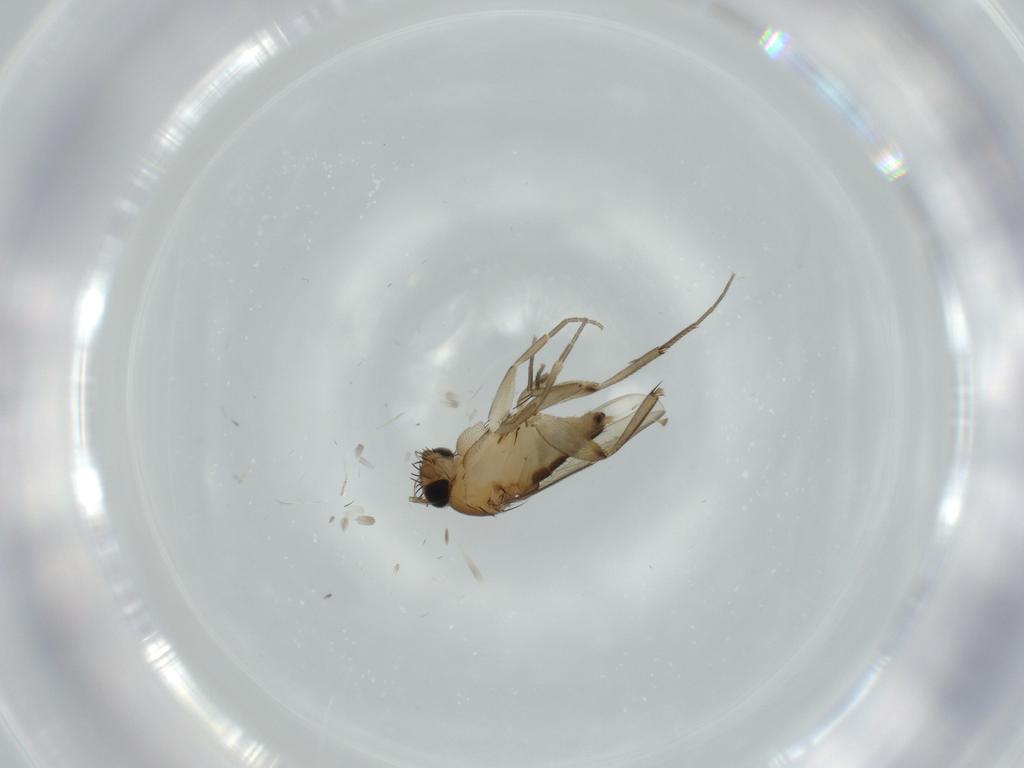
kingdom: Animalia
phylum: Arthropoda
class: Insecta
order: Diptera
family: Phoridae
